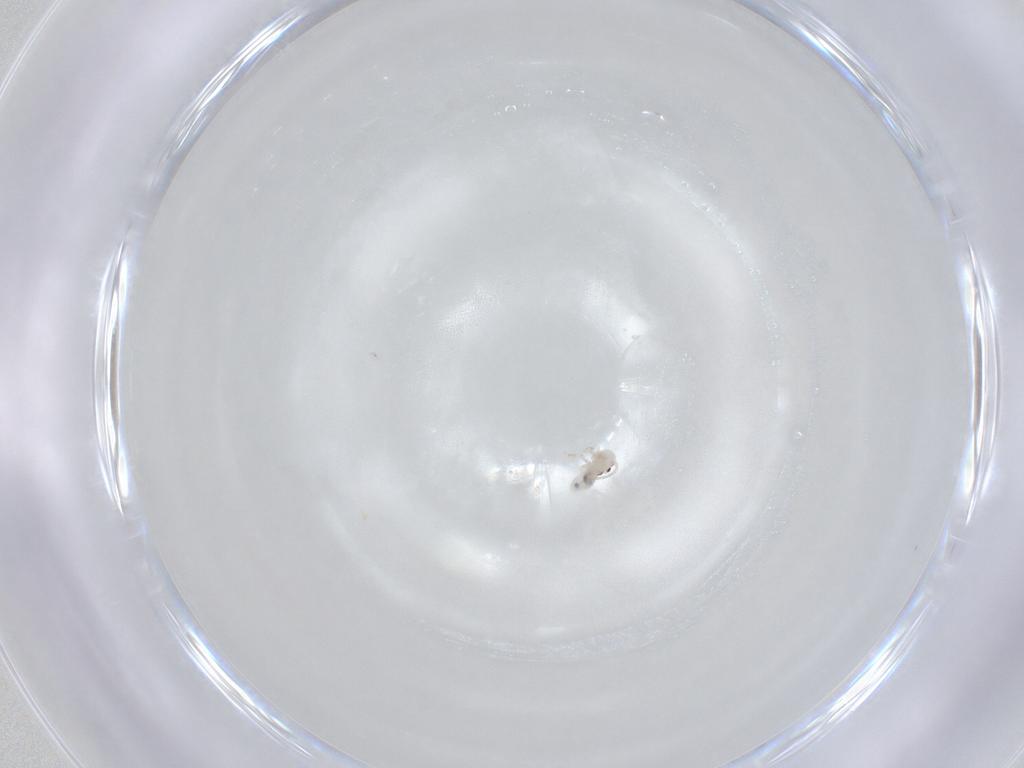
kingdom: Animalia
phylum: Arthropoda
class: Insecta
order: Psocodea
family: Caeciliusidae
